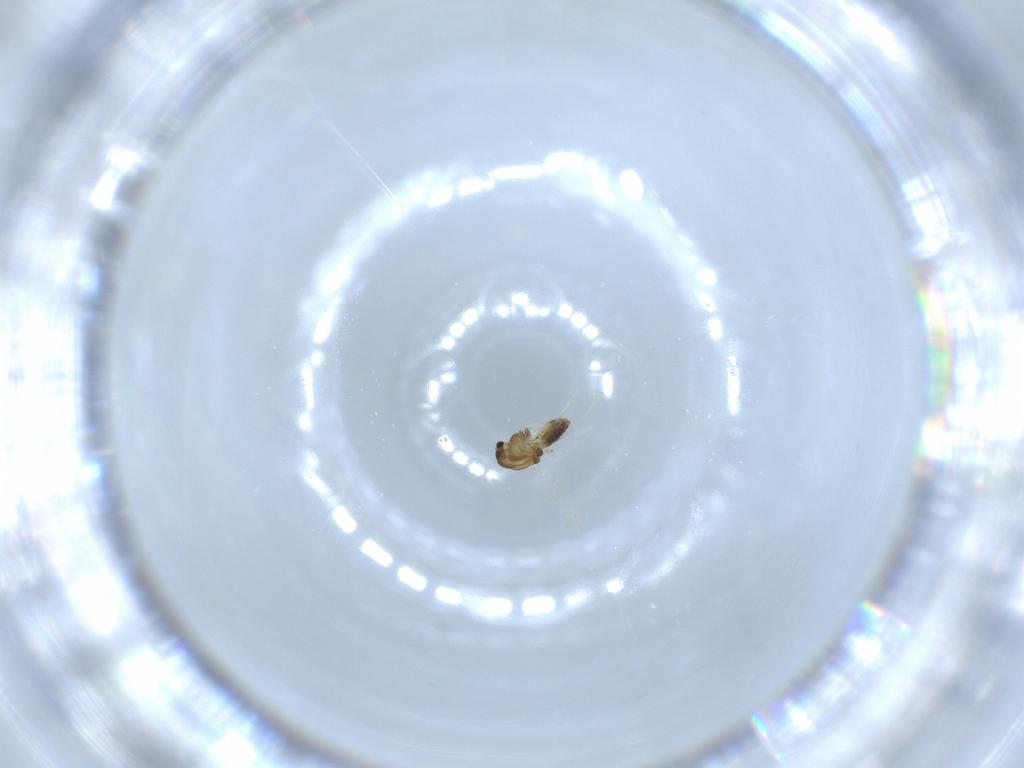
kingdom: Animalia
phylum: Arthropoda
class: Insecta
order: Diptera
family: Chironomidae
